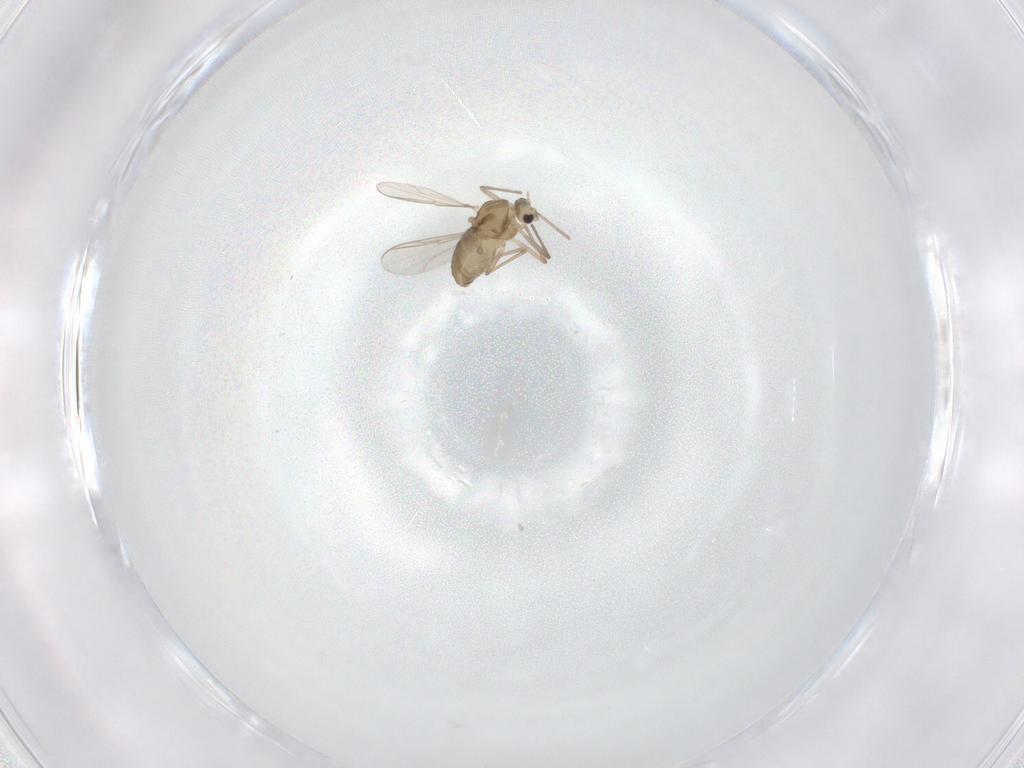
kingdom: Animalia
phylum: Arthropoda
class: Insecta
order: Diptera
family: Chironomidae
